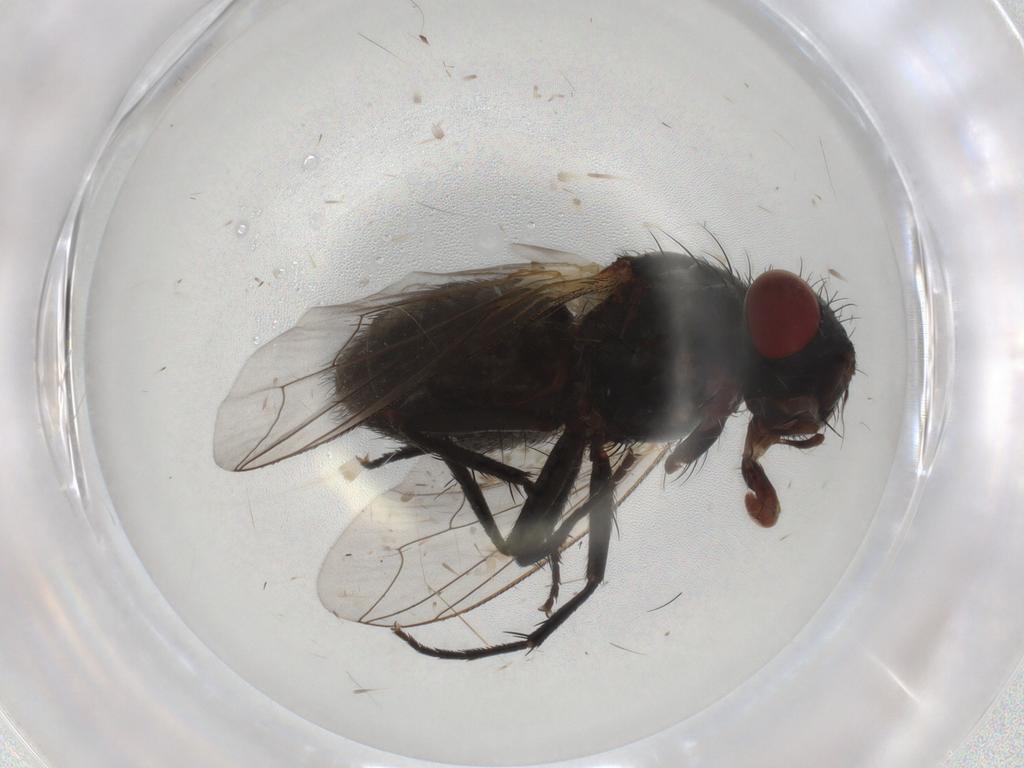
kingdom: Animalia
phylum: Arthropoda
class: Insecta
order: Diptera
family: Sarcophagidae
